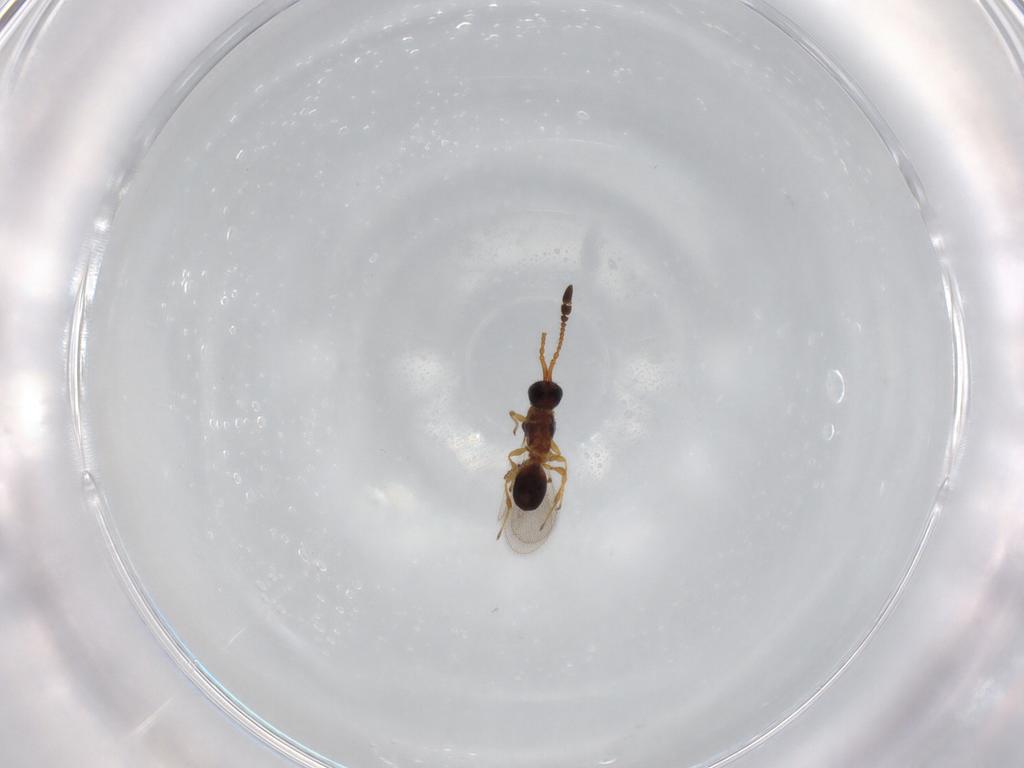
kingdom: Animalia
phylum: Arthropoda
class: Insecta
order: Hymenoptera
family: Diapriidae
